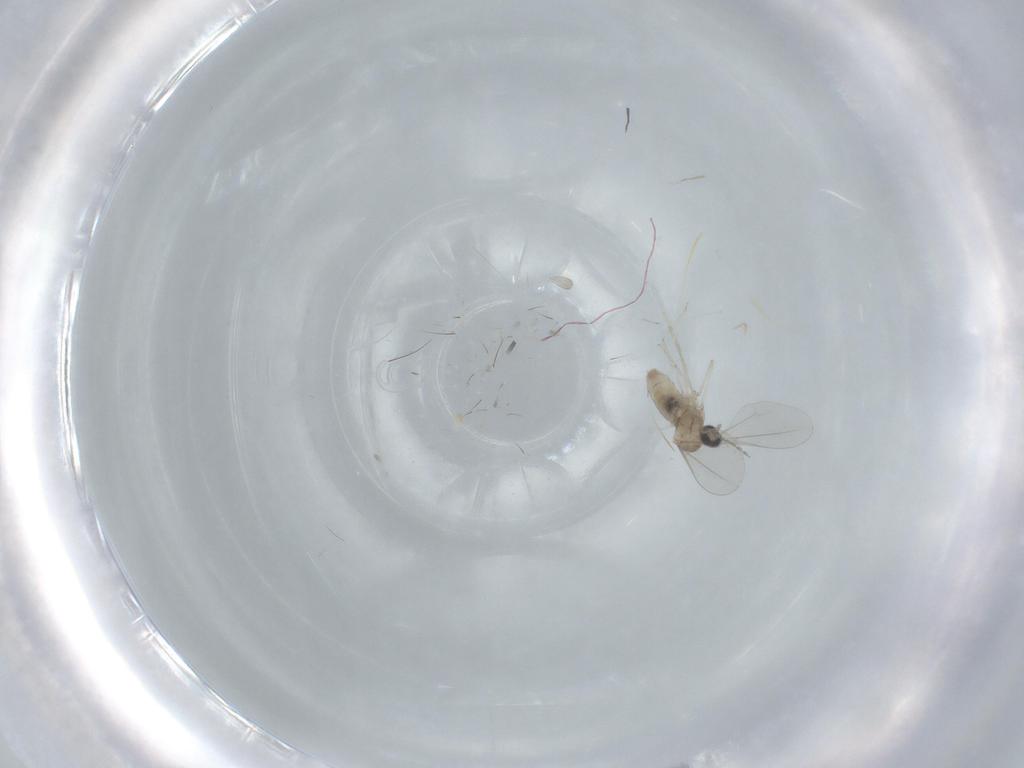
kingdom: Animalia
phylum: Arthropoda
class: Insecta
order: Diptera
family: Cecidomyiidae
